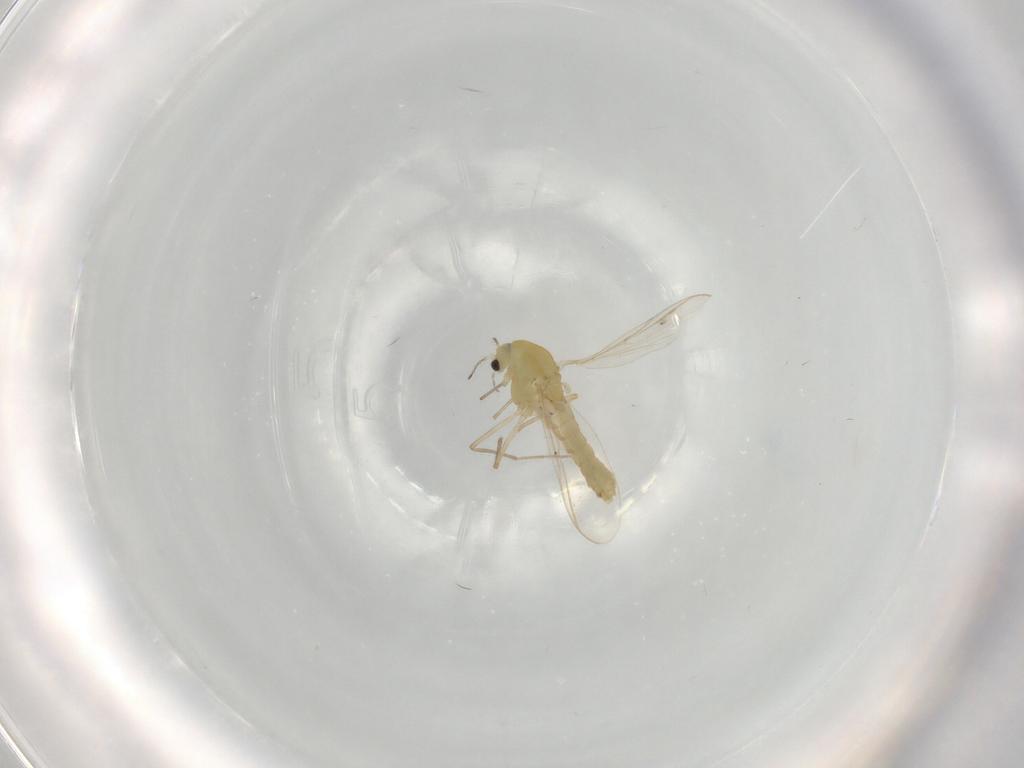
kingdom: Animalia
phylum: Arthropoda
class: Insecta
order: Diptera
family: Chironomidae
